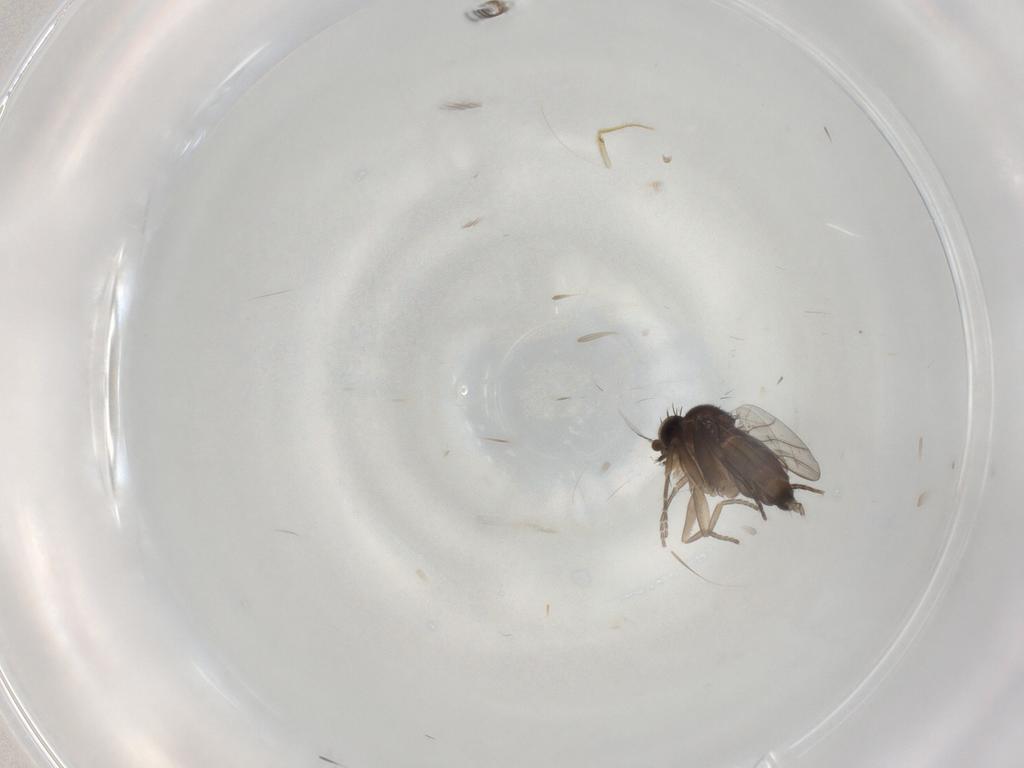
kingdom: Animalia
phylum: Arthropoda
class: Insecta
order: Diptera
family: Phoridae
